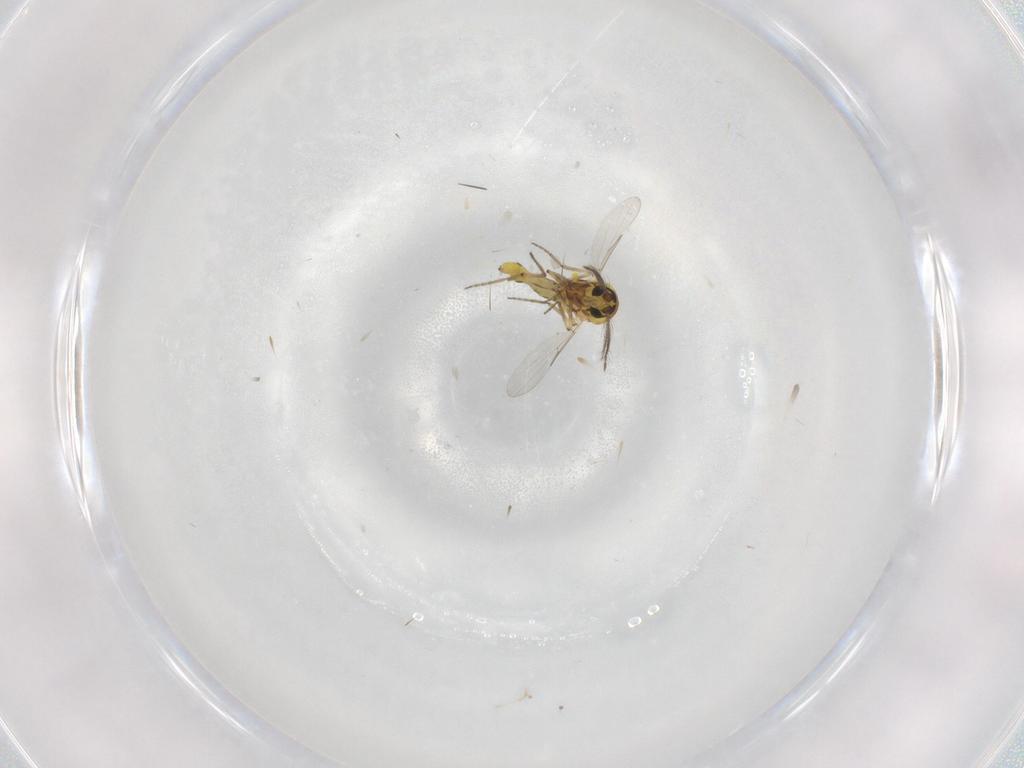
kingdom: Animalia
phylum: Arthropoda
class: Insecta
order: Diptera
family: Ceratopogonidae
